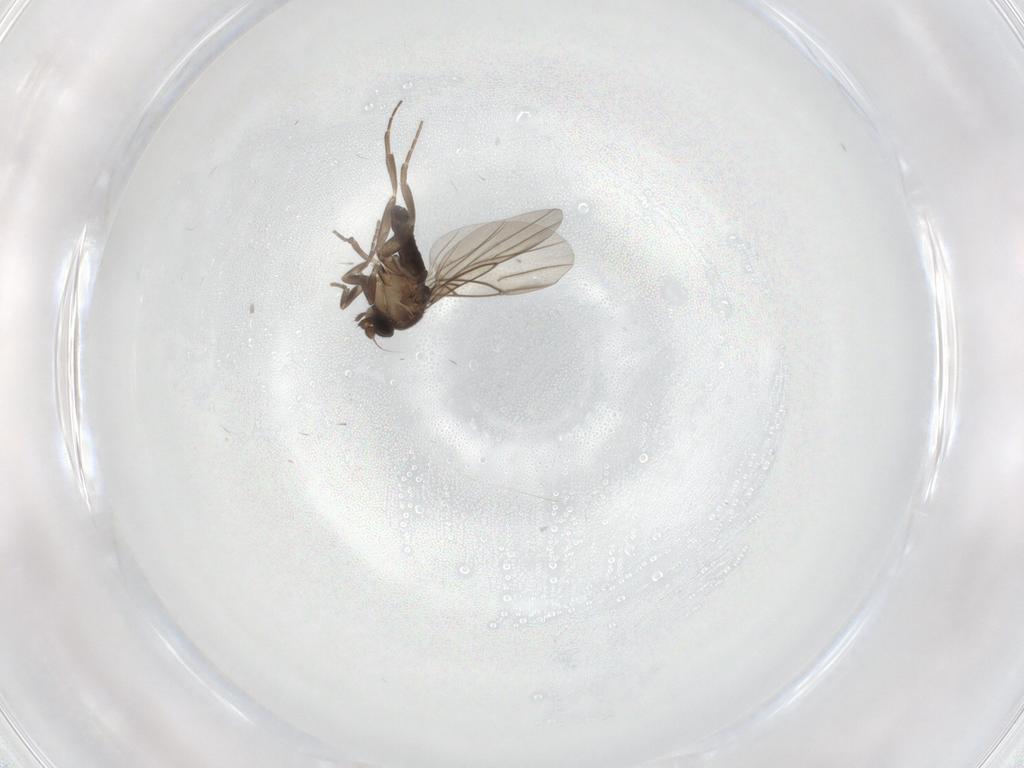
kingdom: Animalia
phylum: Arthropoda
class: Insecta
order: Diptera
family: Phoridae
